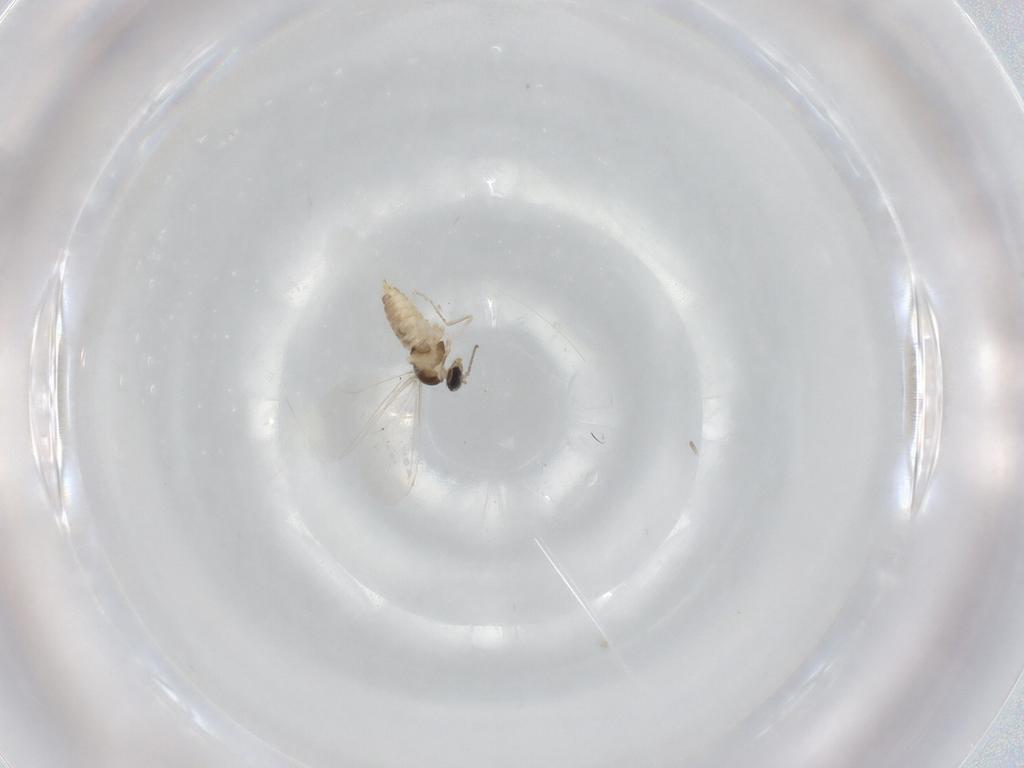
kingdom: Animalia
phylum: Arthropoda
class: Insecta
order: Diptera
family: Cecidomyiidae
